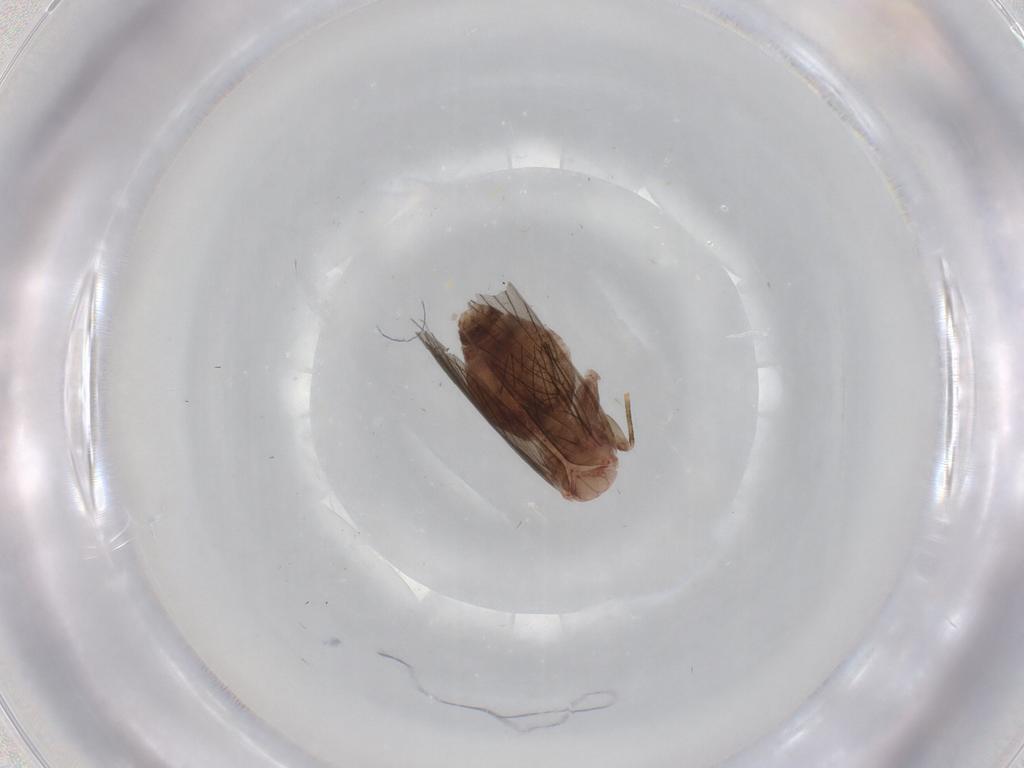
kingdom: Animalia
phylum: Arthropoda
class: Insecta
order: Psocodea
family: Lepidopsocidae
